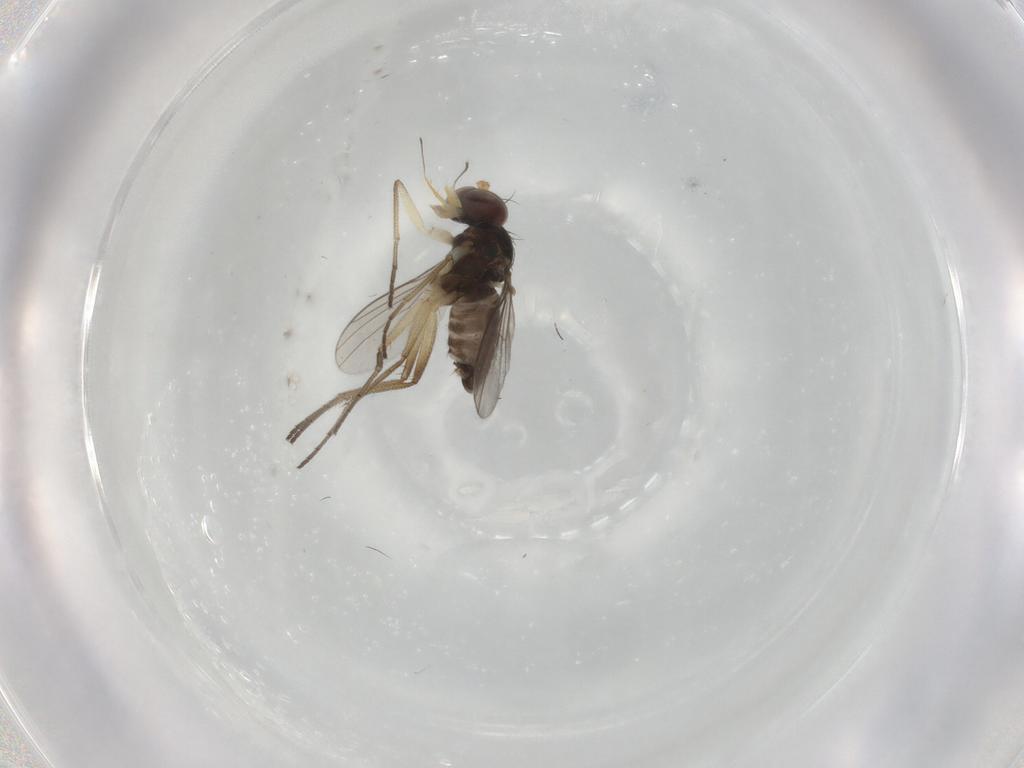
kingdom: Animalia
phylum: Arthropoda
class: Insecta
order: Diptera
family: Dolichopodidae
